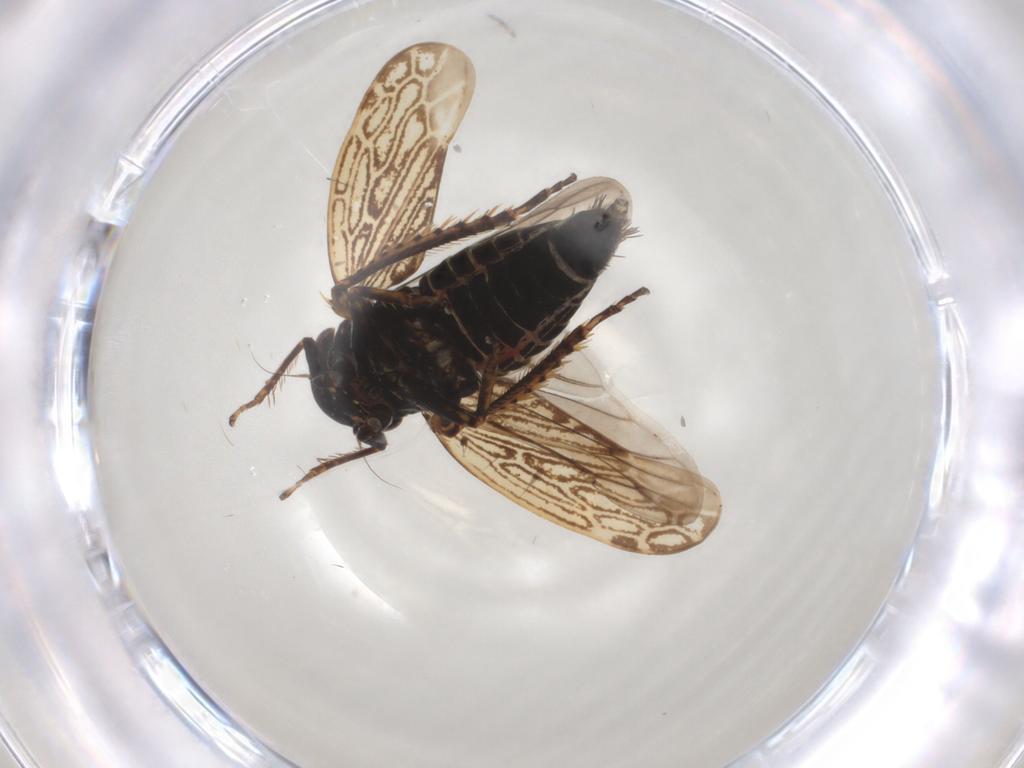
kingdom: Animalia
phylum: Arthropoda
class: Insecta
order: Hemiptera
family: Cicadellidae
